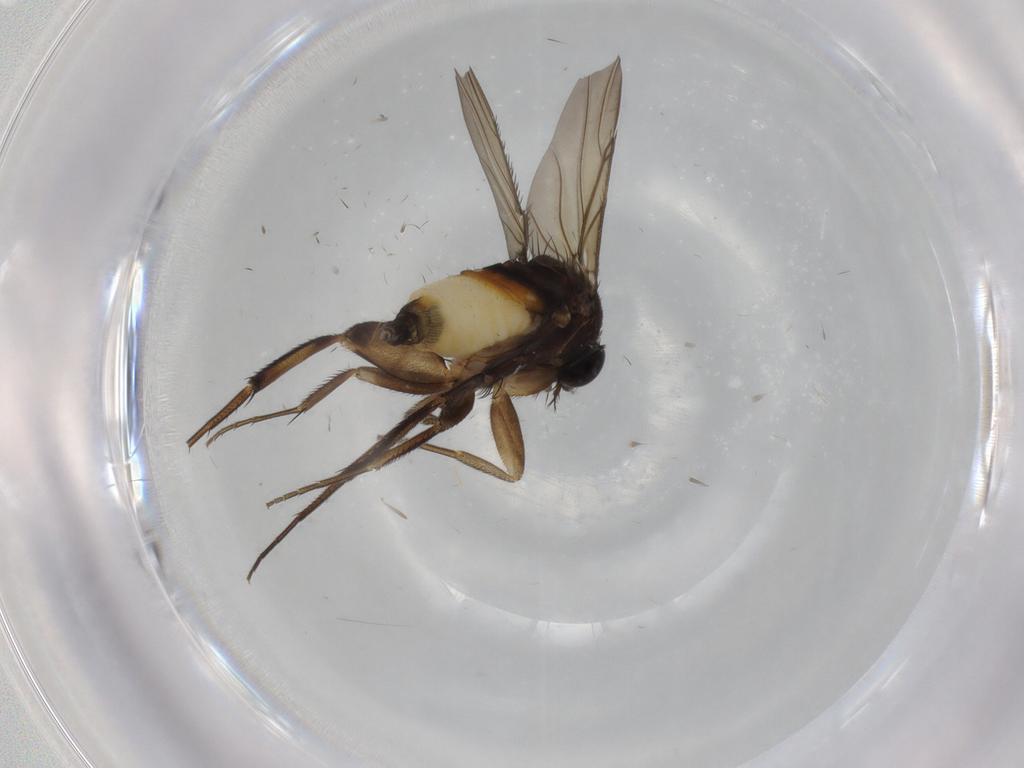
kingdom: Animalia
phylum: Arthropoda
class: Insecta
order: Diptera
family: Phoridae
